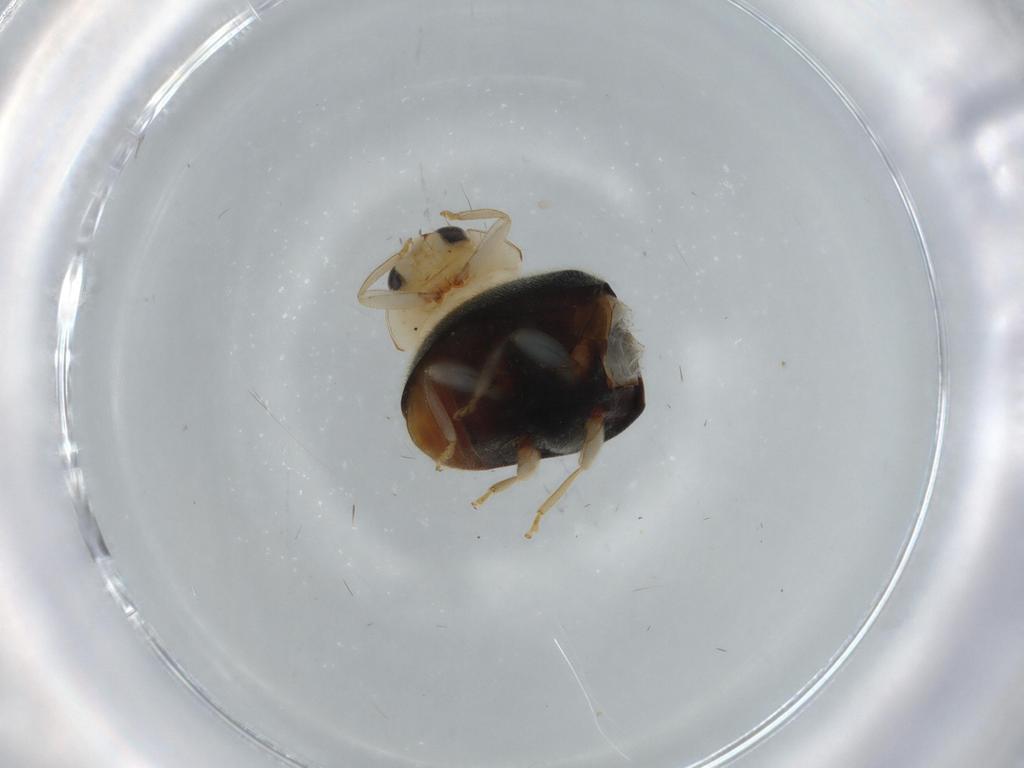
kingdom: Animalia
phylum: Arthropoda
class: Insecta
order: Coleoptera
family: Coccinellidae
